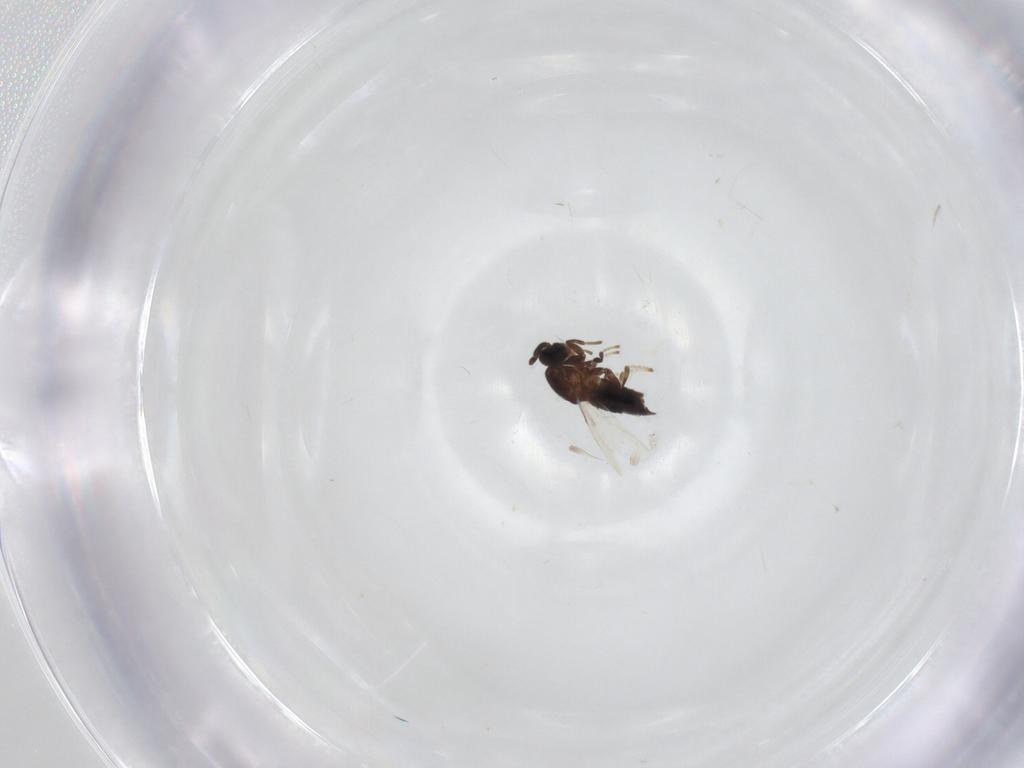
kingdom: Animalia
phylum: Arthropoda
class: Insecta
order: Diptera
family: Scatopsidae
